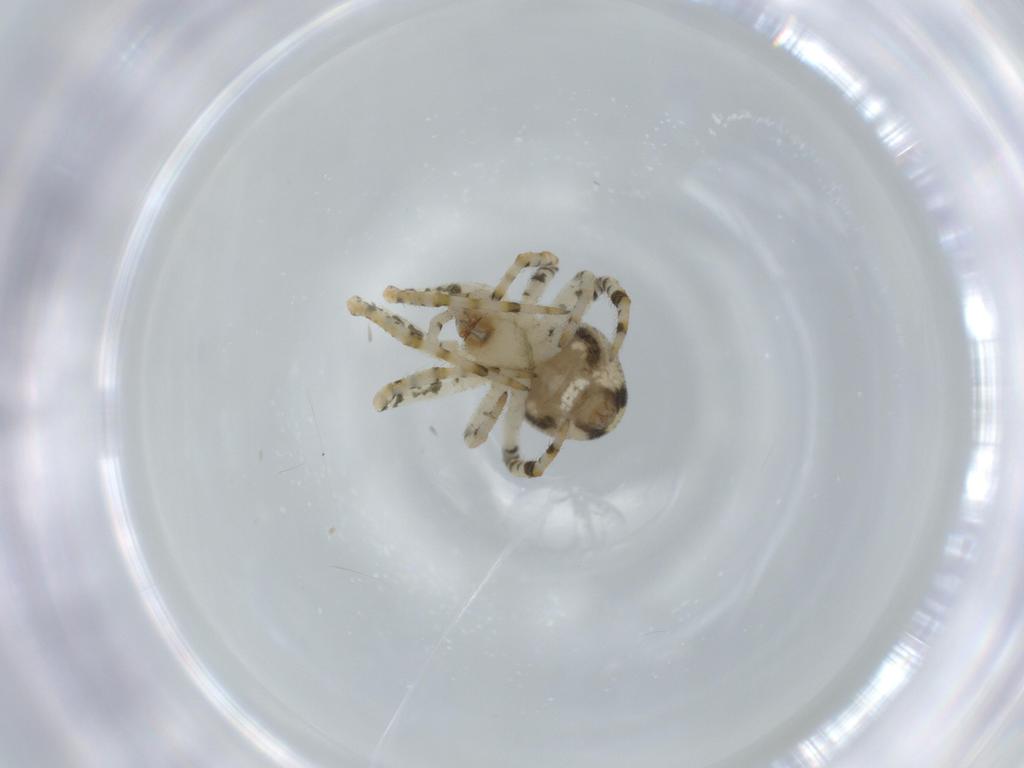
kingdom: Animalia
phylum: Arthropoda
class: Arachnida
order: Araneae
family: Theridiidae
